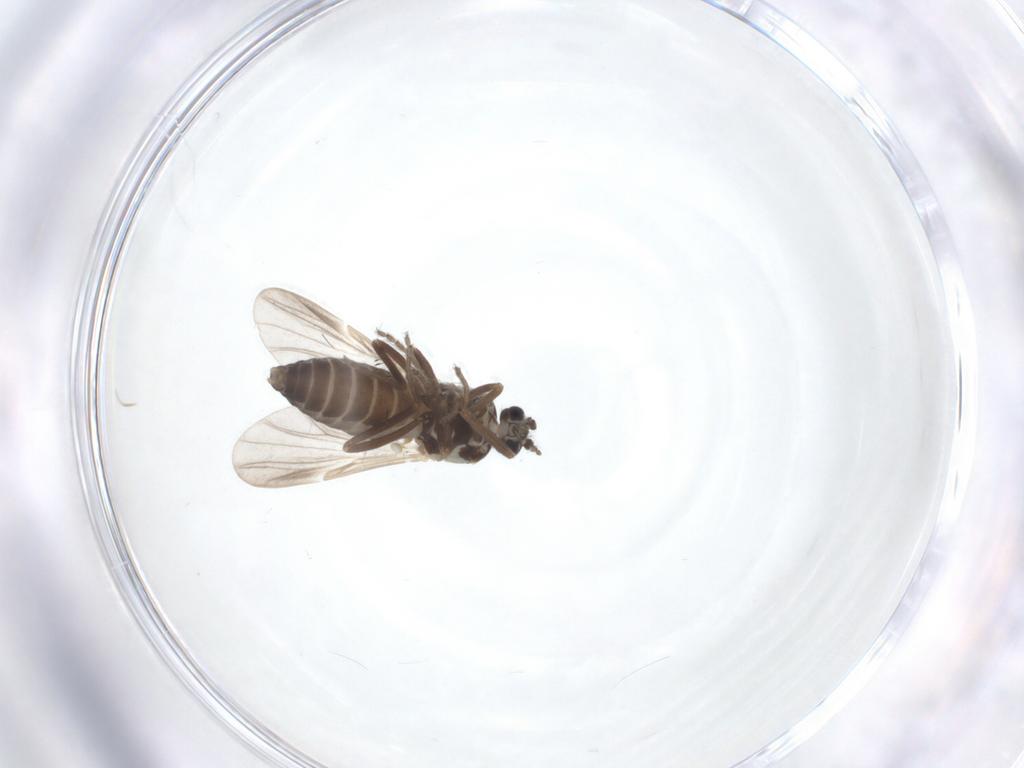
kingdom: Animalia
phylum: Arthropoda
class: Insecta
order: Diptera
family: Ceratopogonidae
